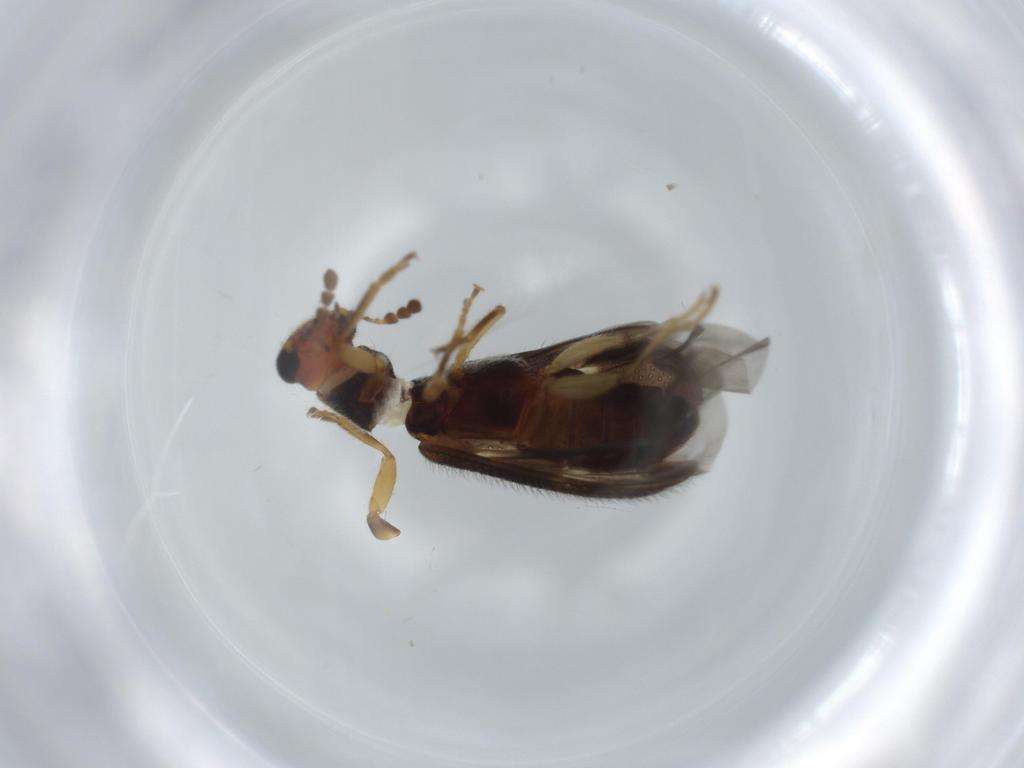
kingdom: Animalia
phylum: Arthropoda
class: Insecta
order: Coleoptera
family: Cleridae
